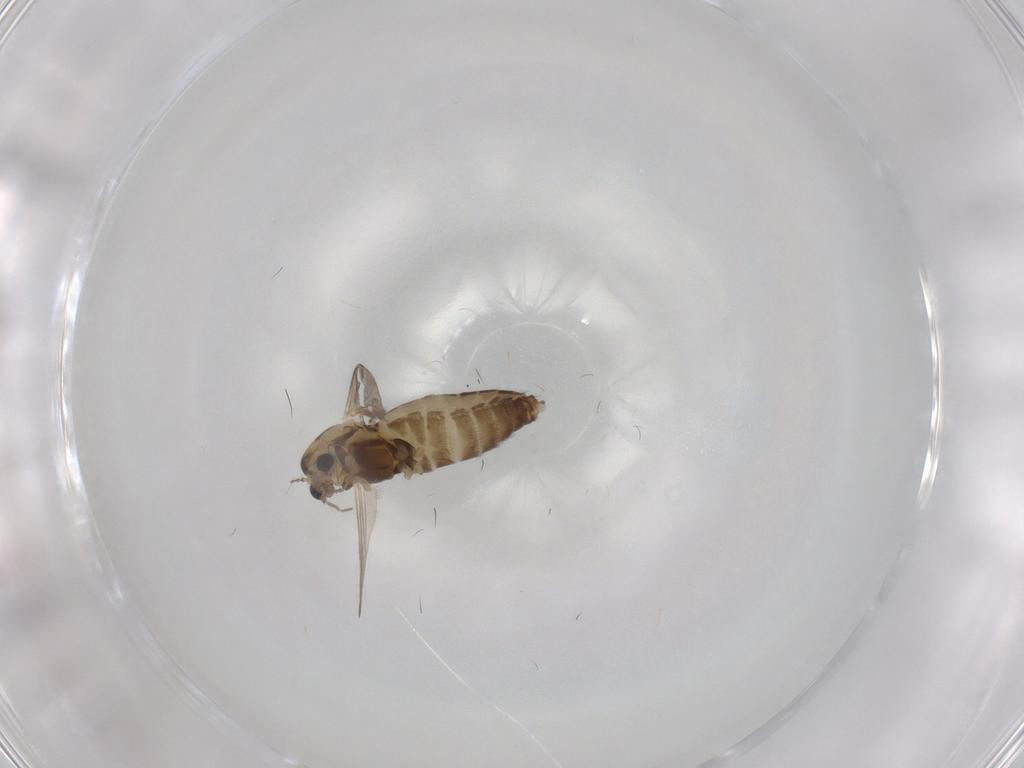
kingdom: Animalia
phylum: Arthropoda
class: Insecta
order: Diptera
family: Chironomidae
